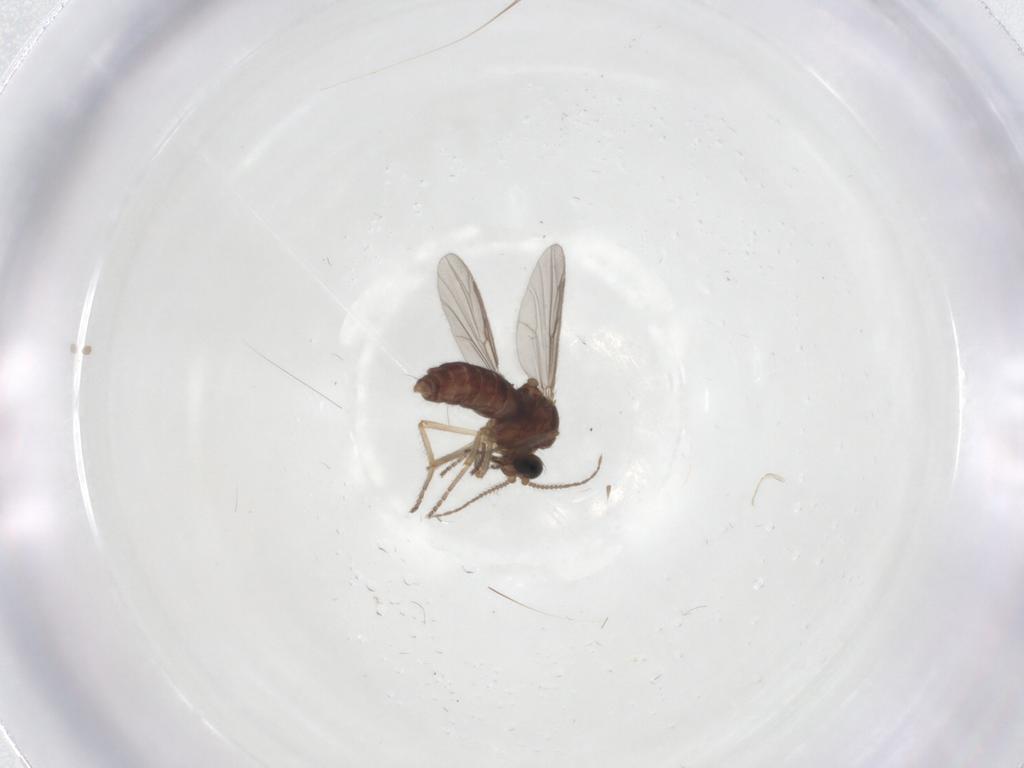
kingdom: Animalia
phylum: Arthropoda
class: Insecta
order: Diptera
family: Ceratopogonidae
